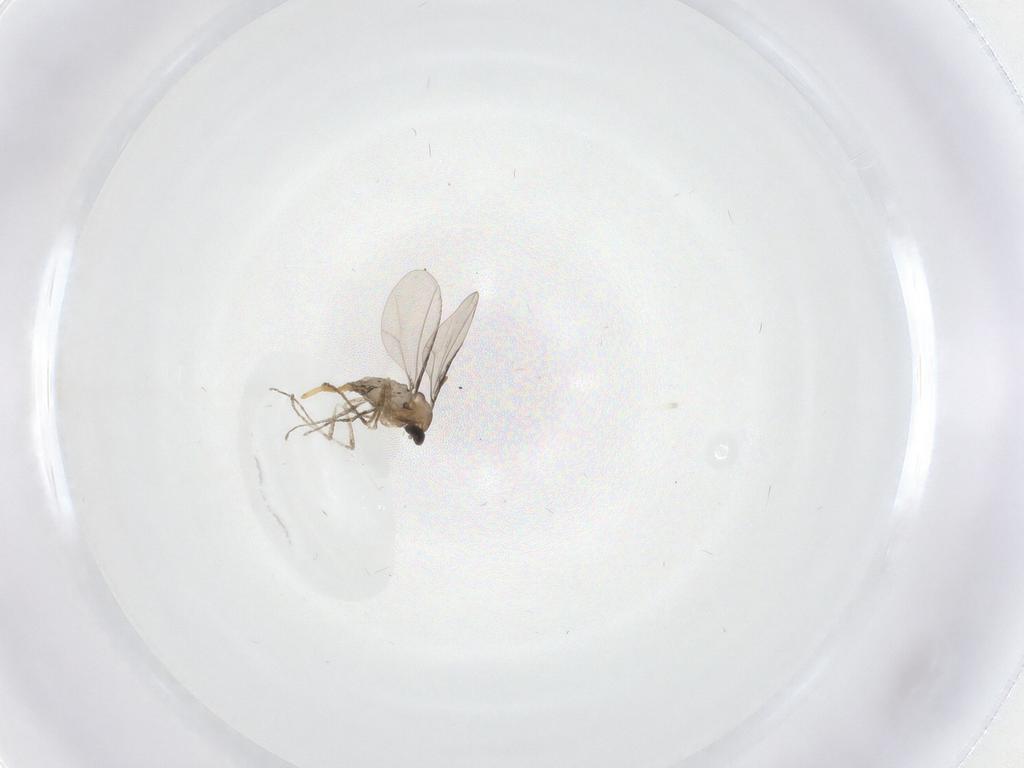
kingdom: Animalia
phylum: Arthropoda
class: Insecta
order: Diptera
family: Cecidomyiidae
